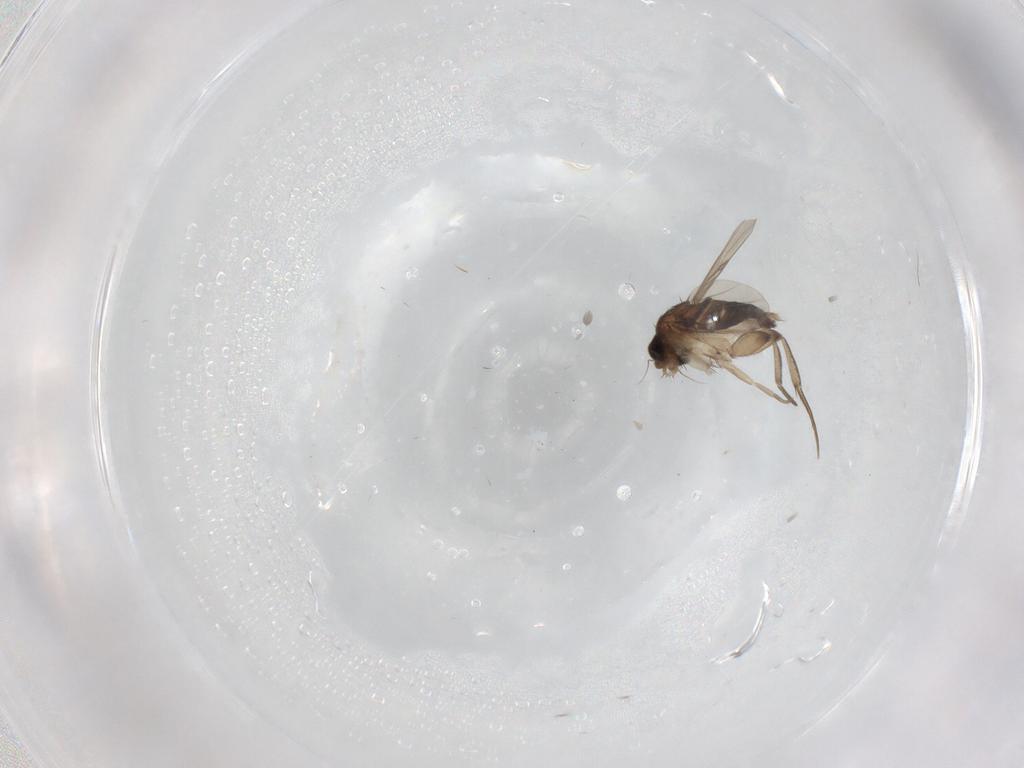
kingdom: Animalia
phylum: Arthropoda
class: Insecta
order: Diptera
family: Phoridae
